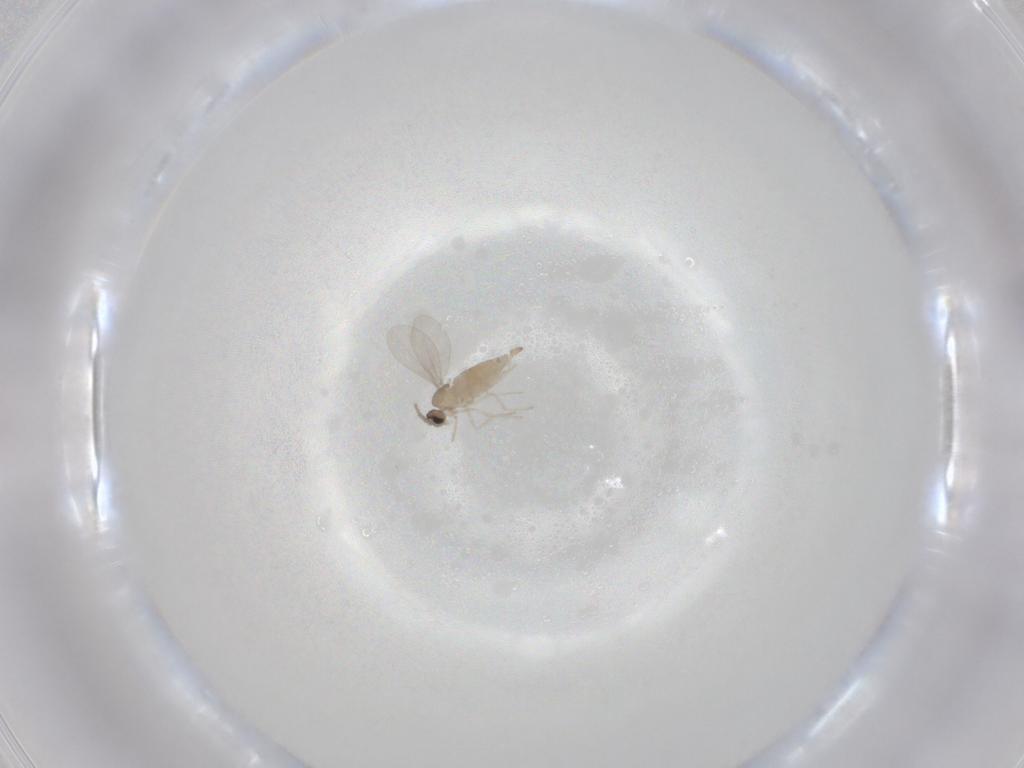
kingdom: Animalia
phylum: Arthropoda
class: Insecta
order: Diptera
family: Cecidomyiidae
